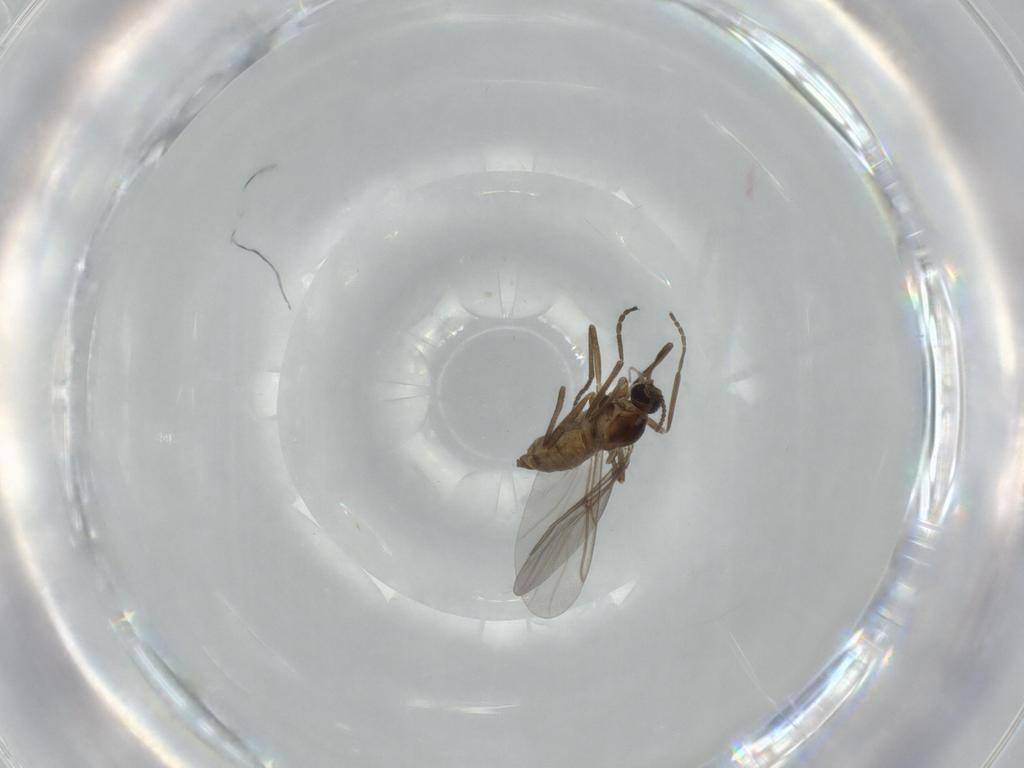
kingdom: Animalia
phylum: Arthropoda
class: Insecta
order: Diptera
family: Cecidomyiidae
